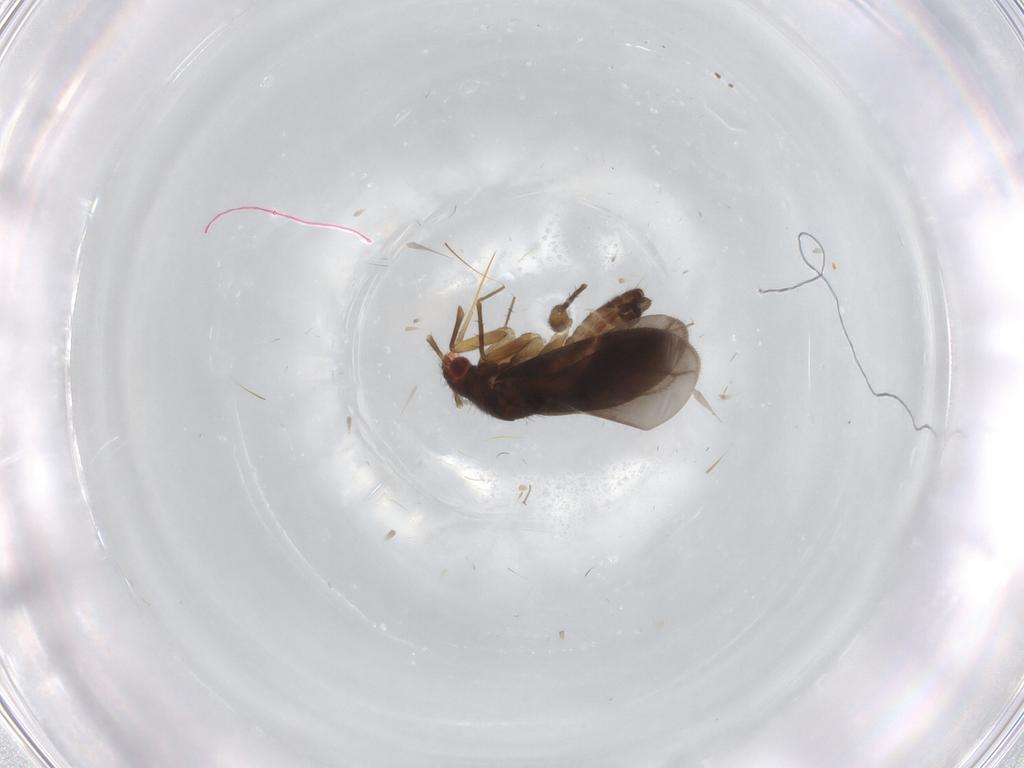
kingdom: Animalia
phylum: Arthropoda
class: Insecta
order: Hemiptera
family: Ceratocombidae
